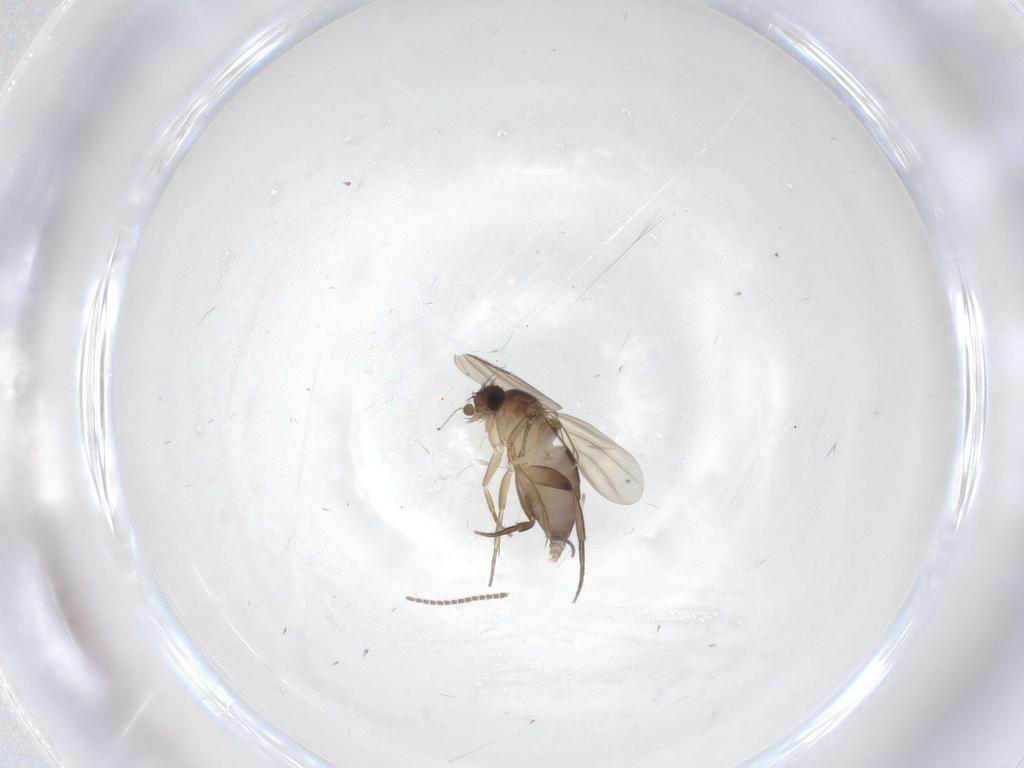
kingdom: Animalia
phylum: Arthropoda
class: Insecta
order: Diptera
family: Phoridae
